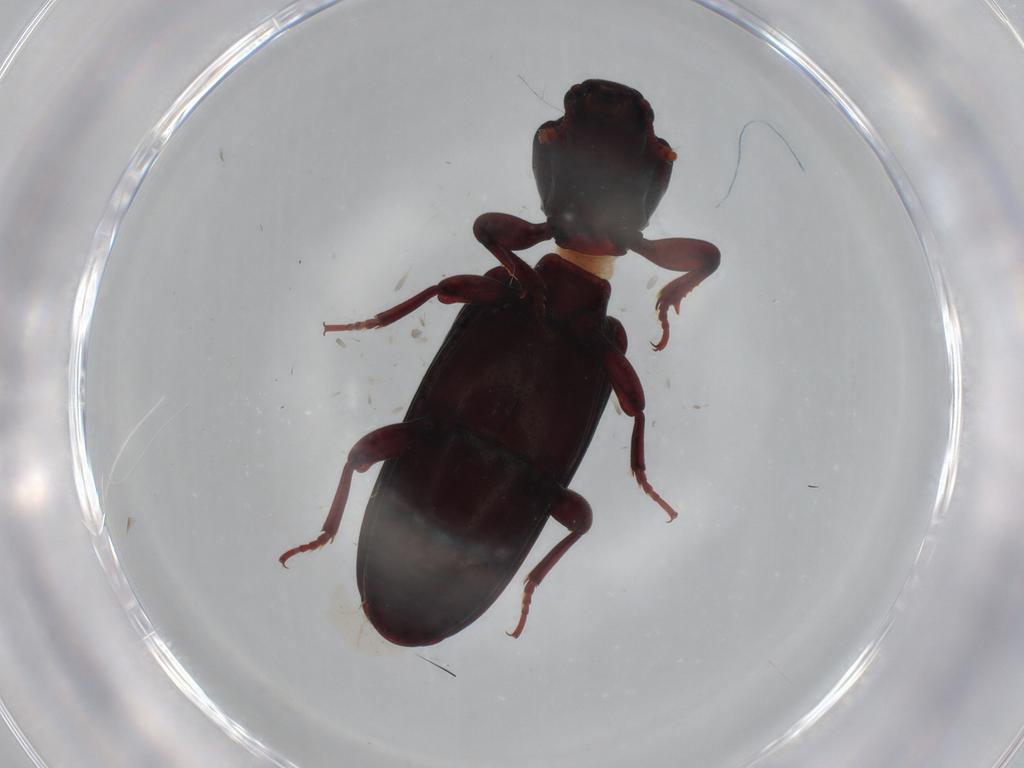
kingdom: Animalia
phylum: Arthropoda
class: Insecta
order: Coleoptera
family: Bothrideridae
